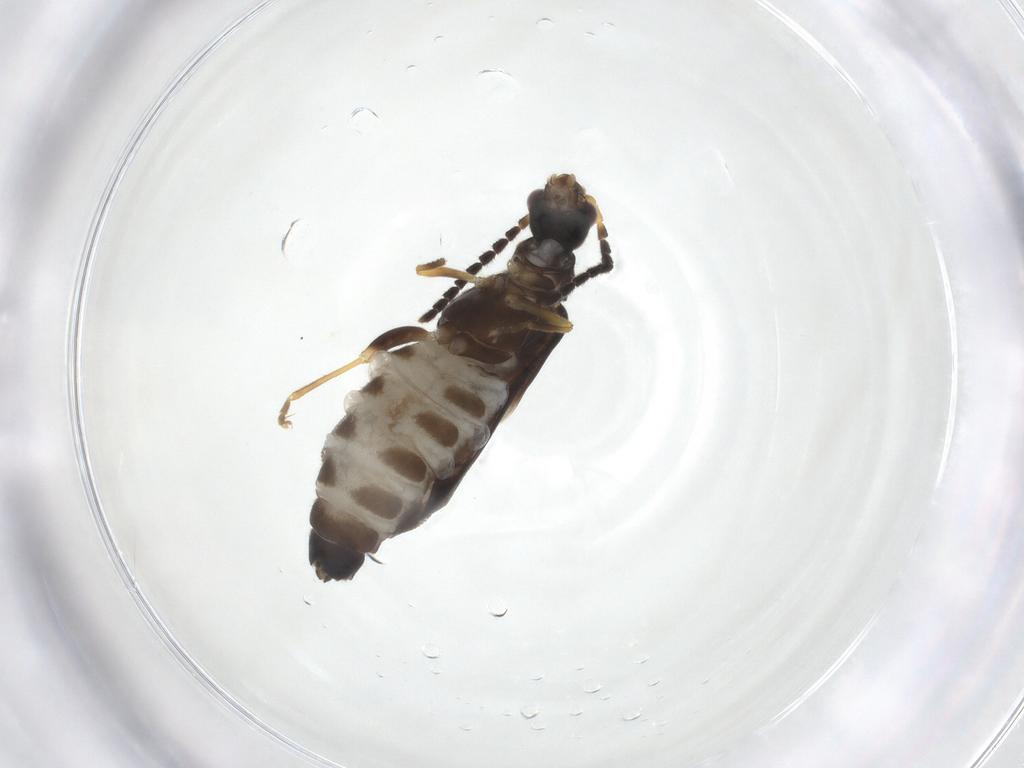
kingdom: Animalia
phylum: Arthropoda
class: Insecta
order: Coleoptera
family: Cantharidae
